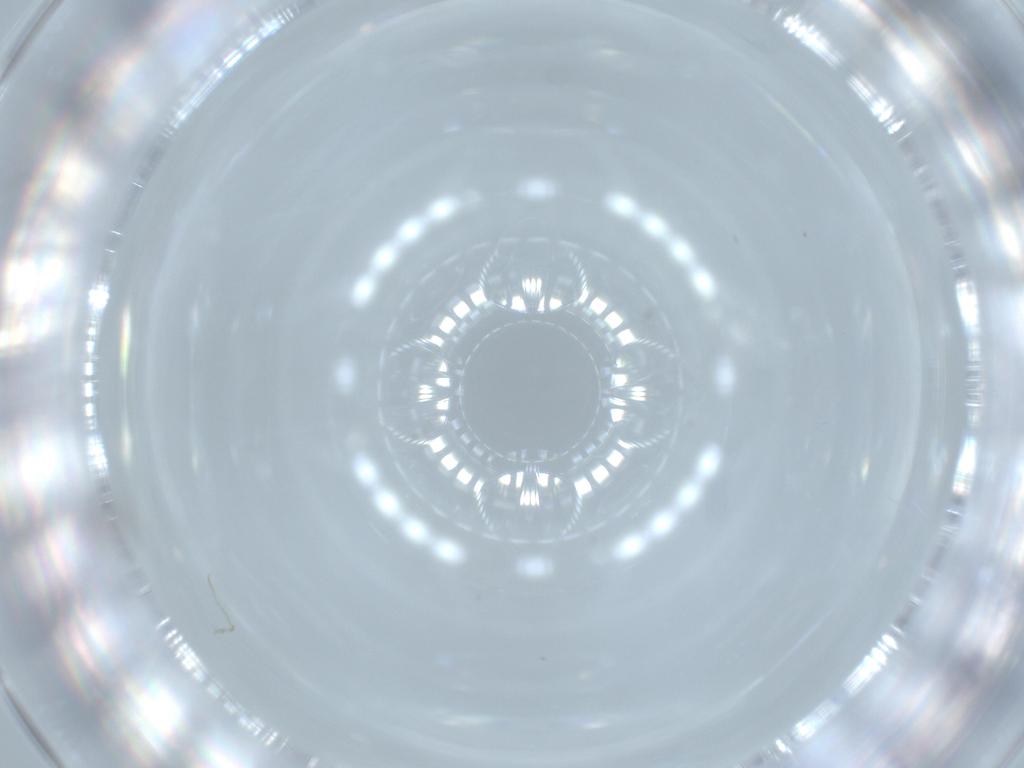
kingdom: Animalia
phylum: Arthropoda
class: Insecta
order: Hymenoptera
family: Mymaridae
